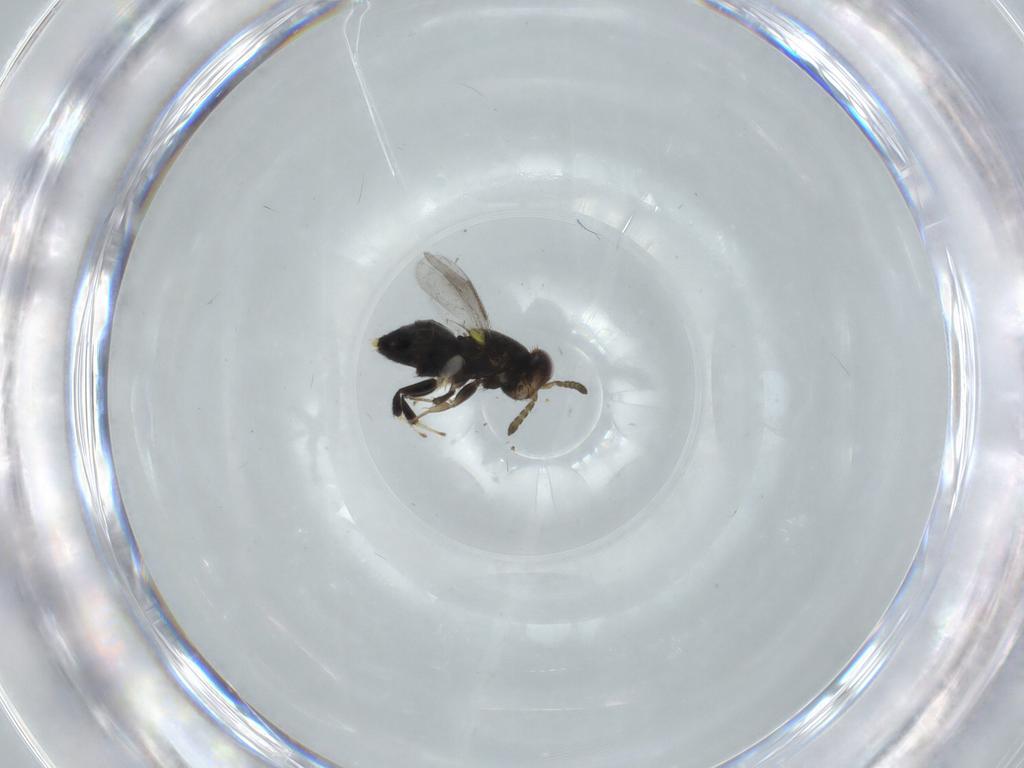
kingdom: Animalia
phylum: Arthropoda
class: Insecta
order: Hymenoptera
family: Aphelinidae
